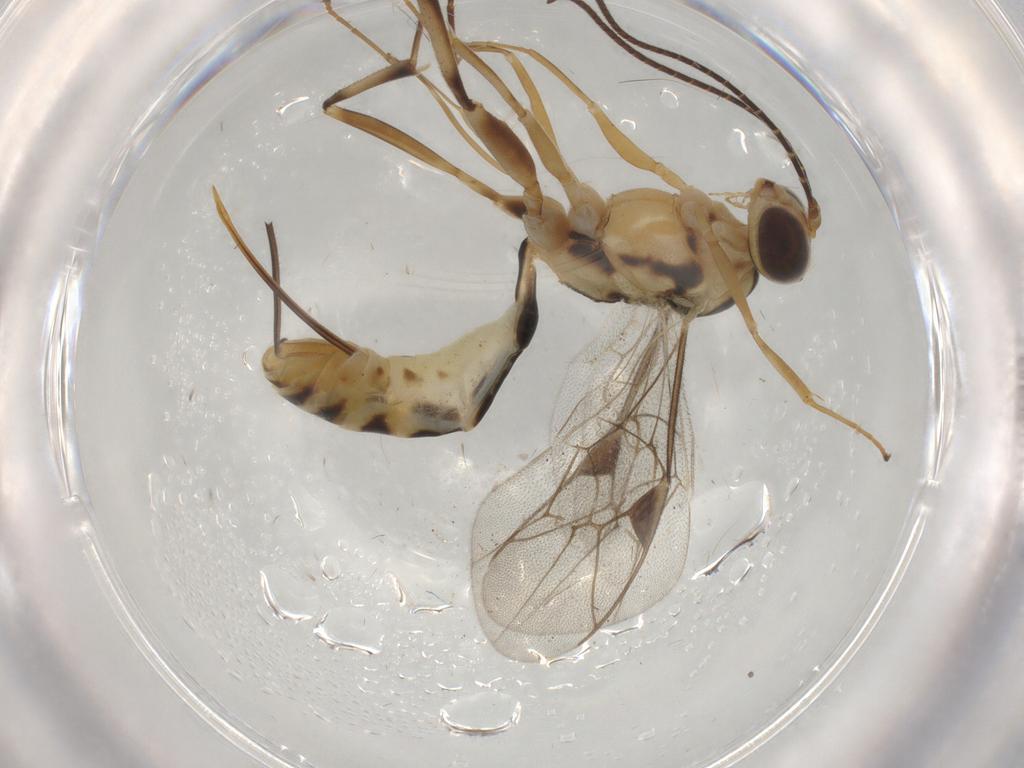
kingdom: Animalia
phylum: Arthropoda
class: Insecta
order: Hymenoptera
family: Ichneumonidae
